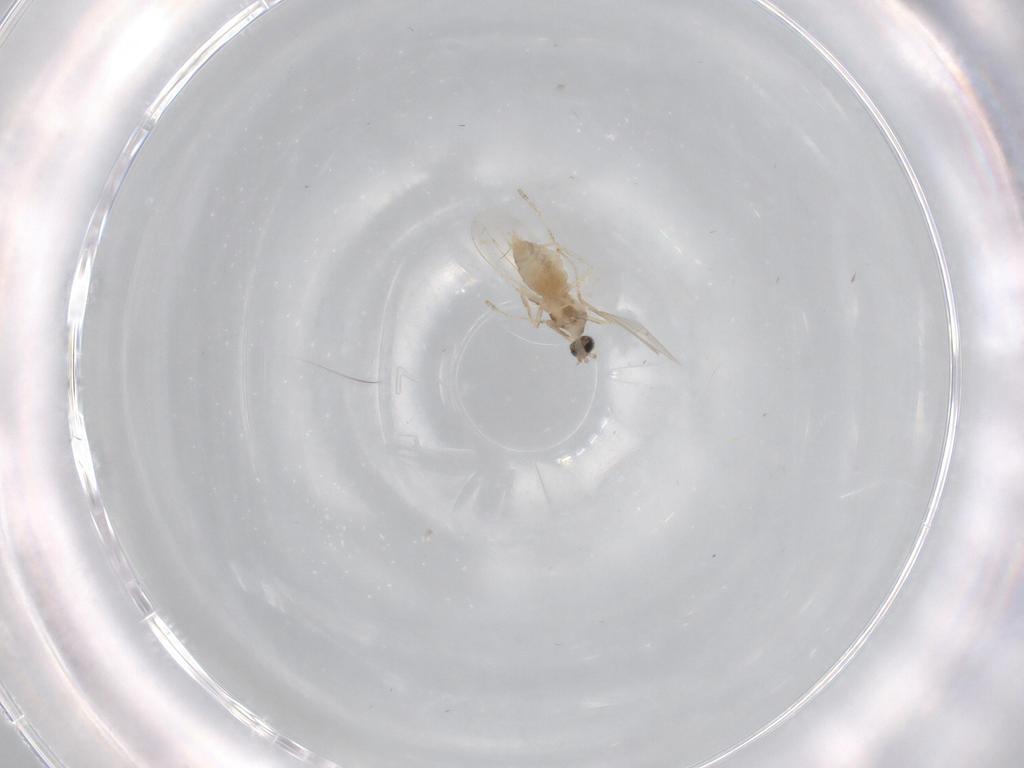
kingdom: Animalia
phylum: Arthropoda
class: Insecta
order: Diptera
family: Cecidomyiidae
